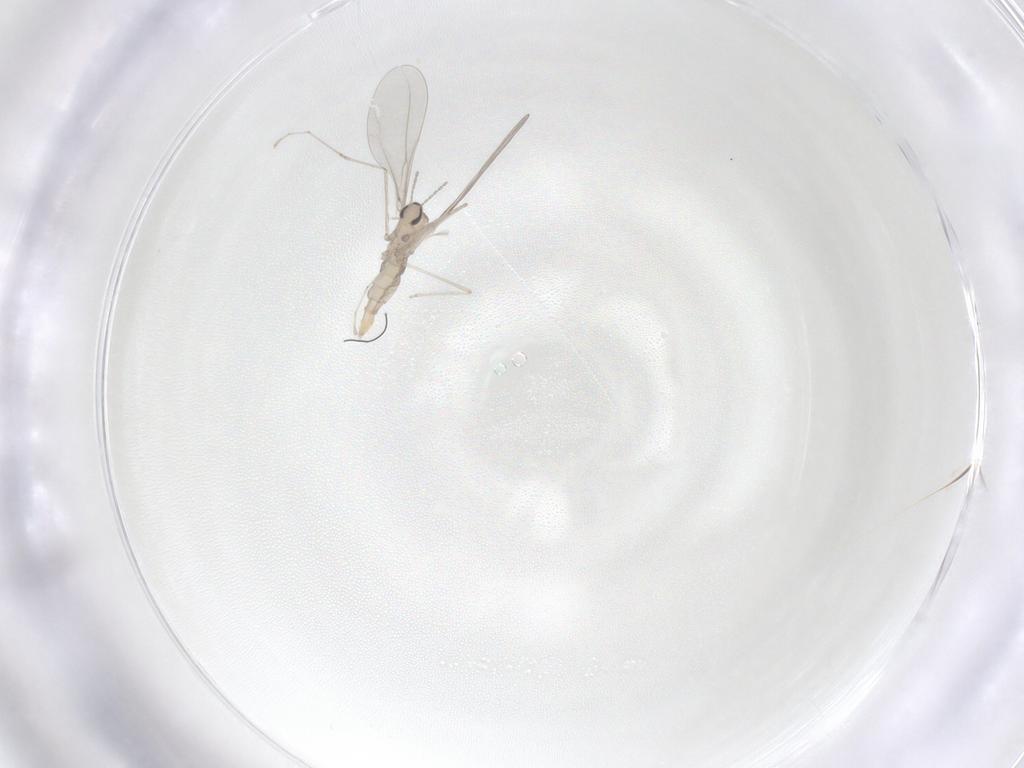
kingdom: Animalia
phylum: Arthropoda
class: Insecta
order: Diptera
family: Cecidomyiidae
